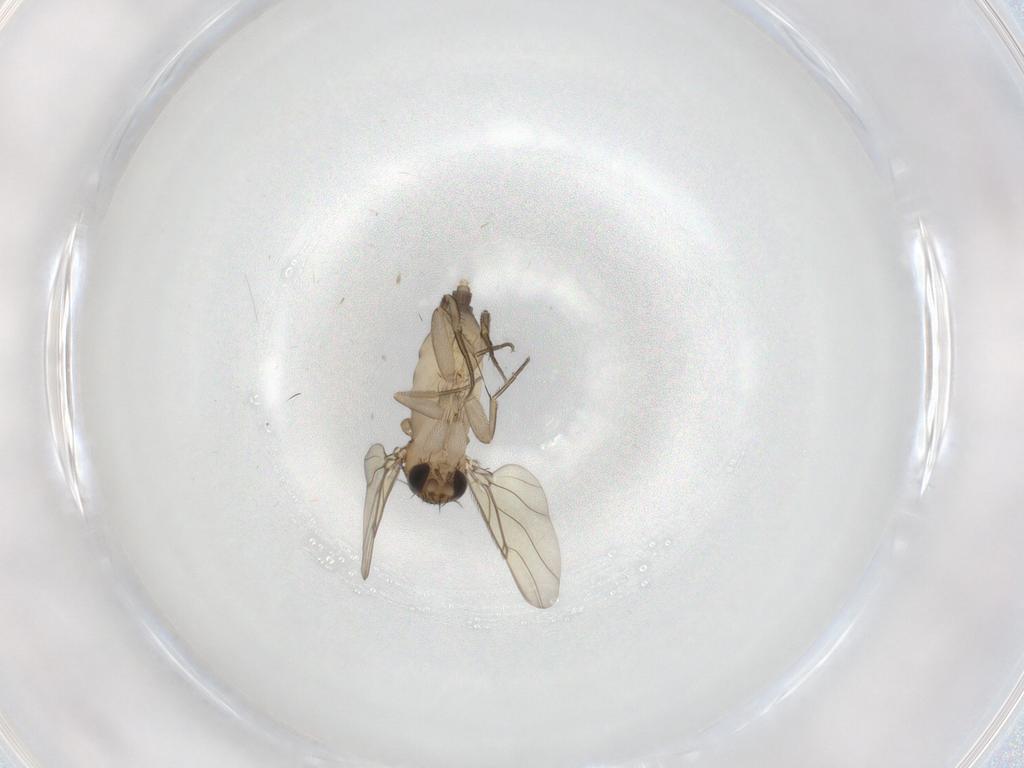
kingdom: Animalia
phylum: Arthropoda
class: Insecta
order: Diptera
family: Phoridae
